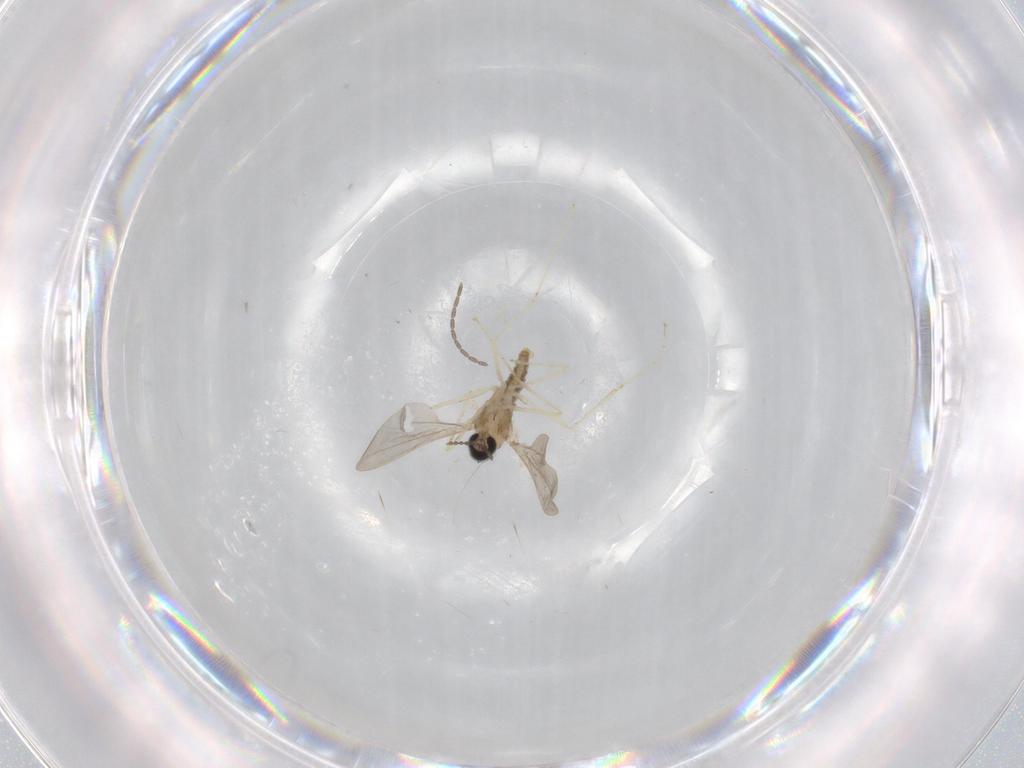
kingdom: Animalia
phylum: Arthropoda
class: Insecta
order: Diptera
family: Cecidomyiidae
